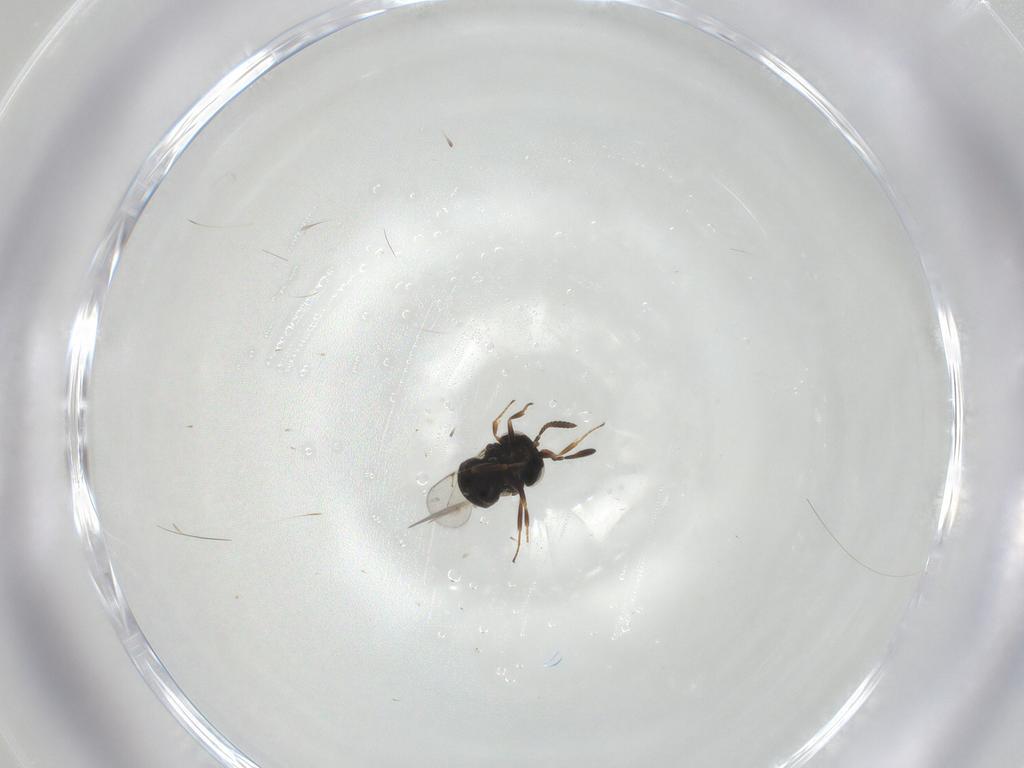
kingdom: Animalia
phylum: Arthropoda
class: Insecta
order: Hymenoptera
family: Scelionidae
